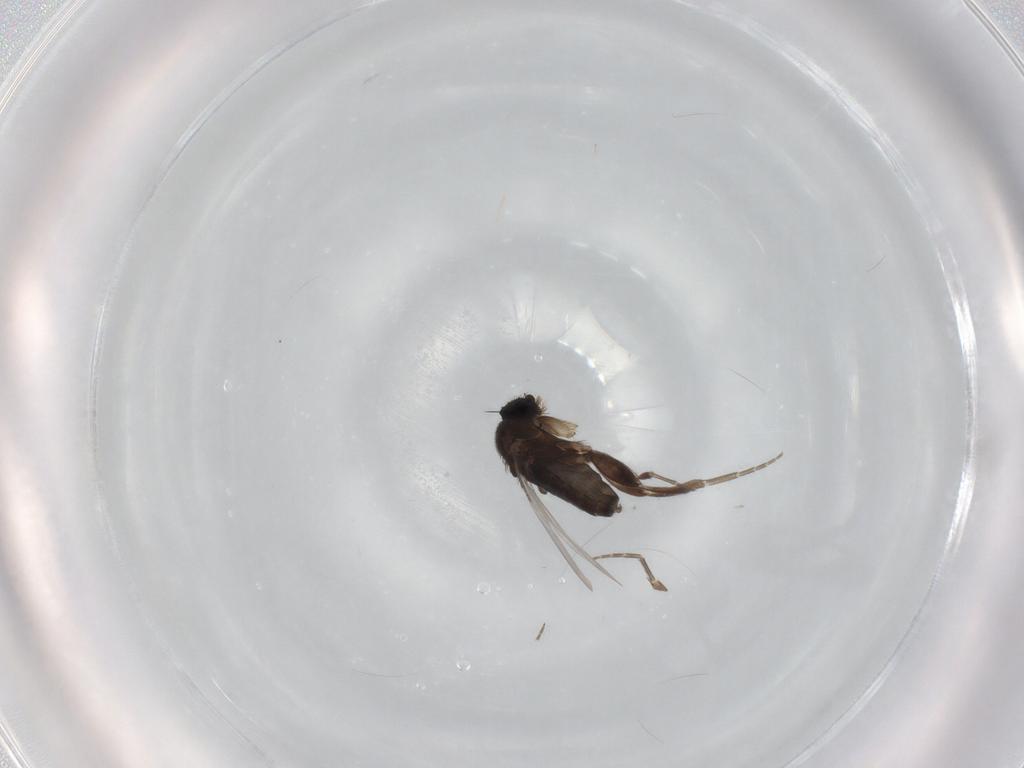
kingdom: Animalia
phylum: Arthropoda
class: Insecta
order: Diptera
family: Phoridae
